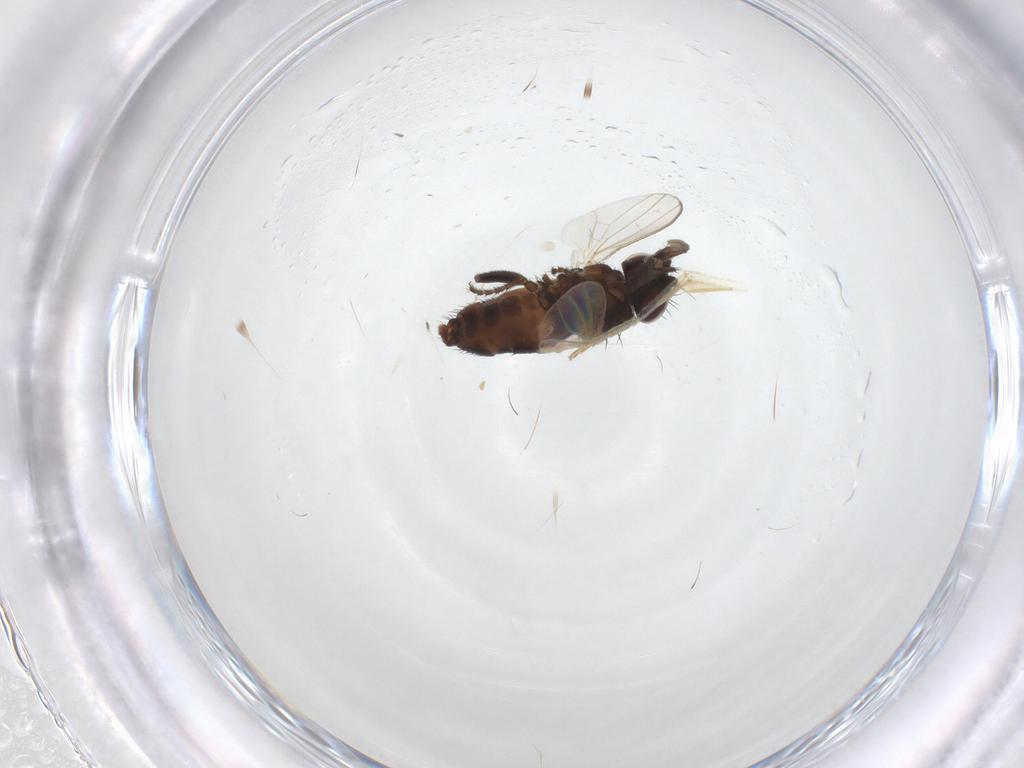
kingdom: Animalia
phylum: Arthropoda
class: Insecta
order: Diptera
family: Milichiidae
